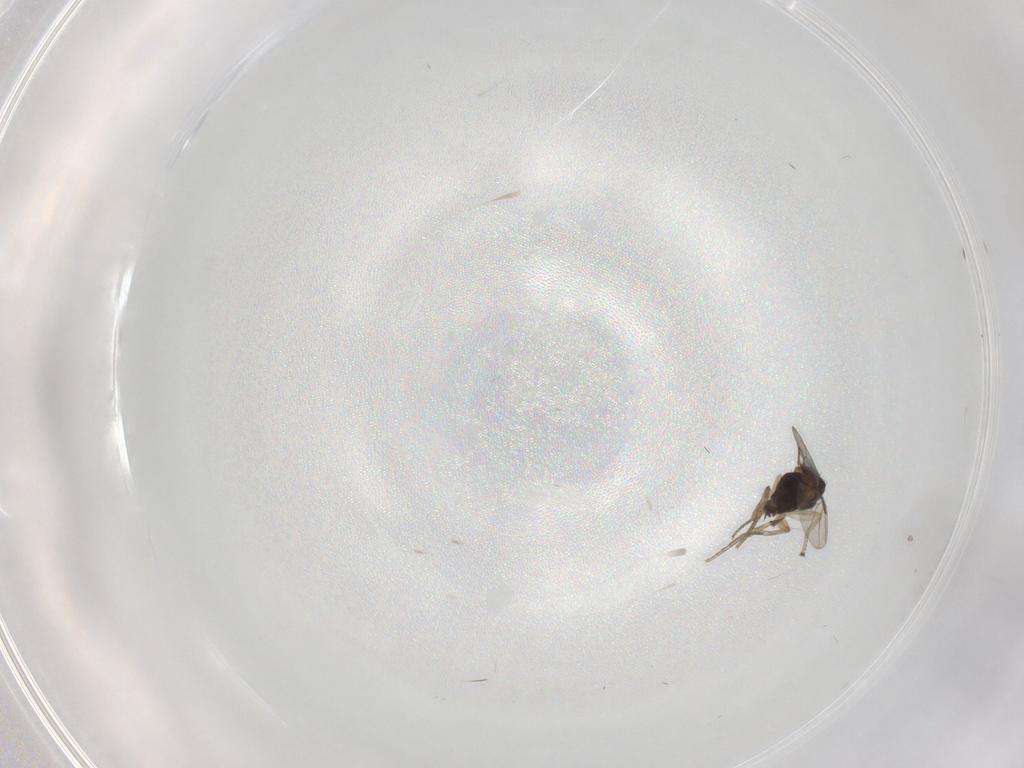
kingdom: Animalia
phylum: Arthropoda
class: Insecta
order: Diptera
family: Phoridae
